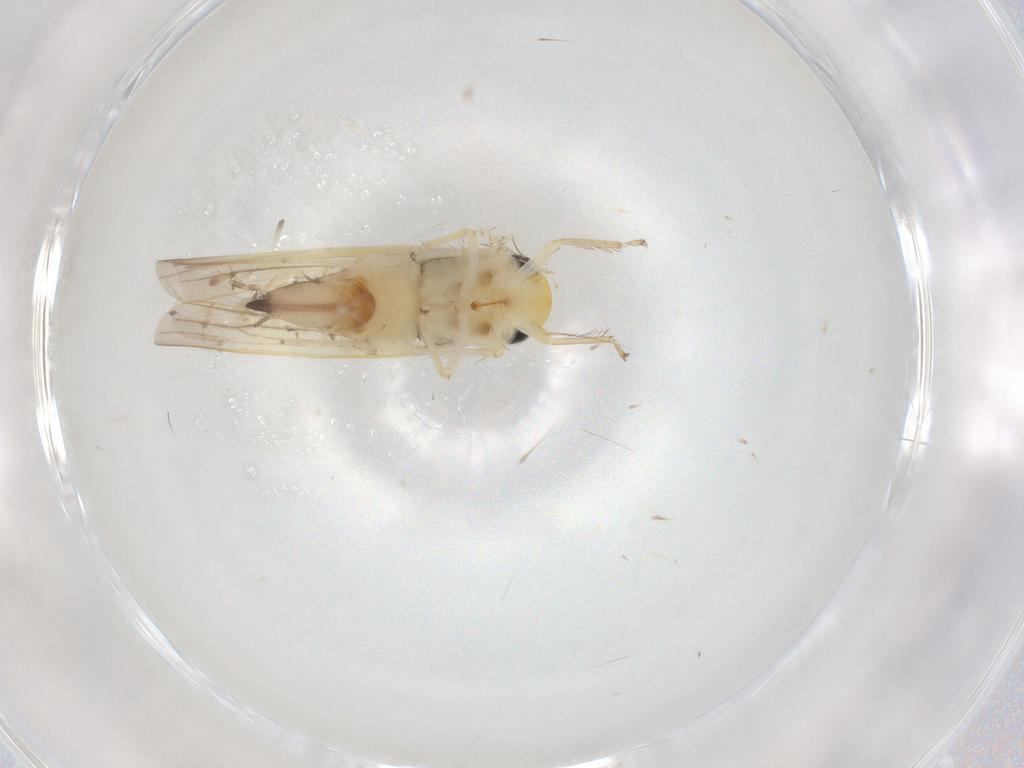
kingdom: Animalia
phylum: Arthropoda
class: Insecta
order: Hemiptera
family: Cicadellidae
